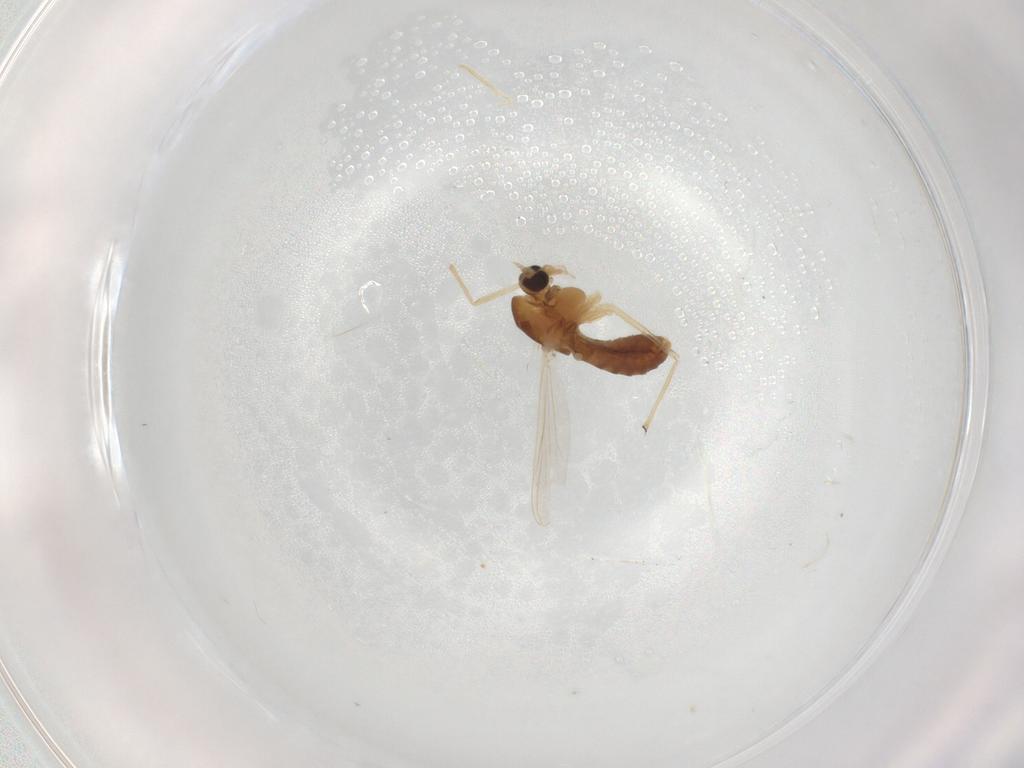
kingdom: Animalia
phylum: Arthropoda
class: Insecta
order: Diptera
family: Chironomidae
